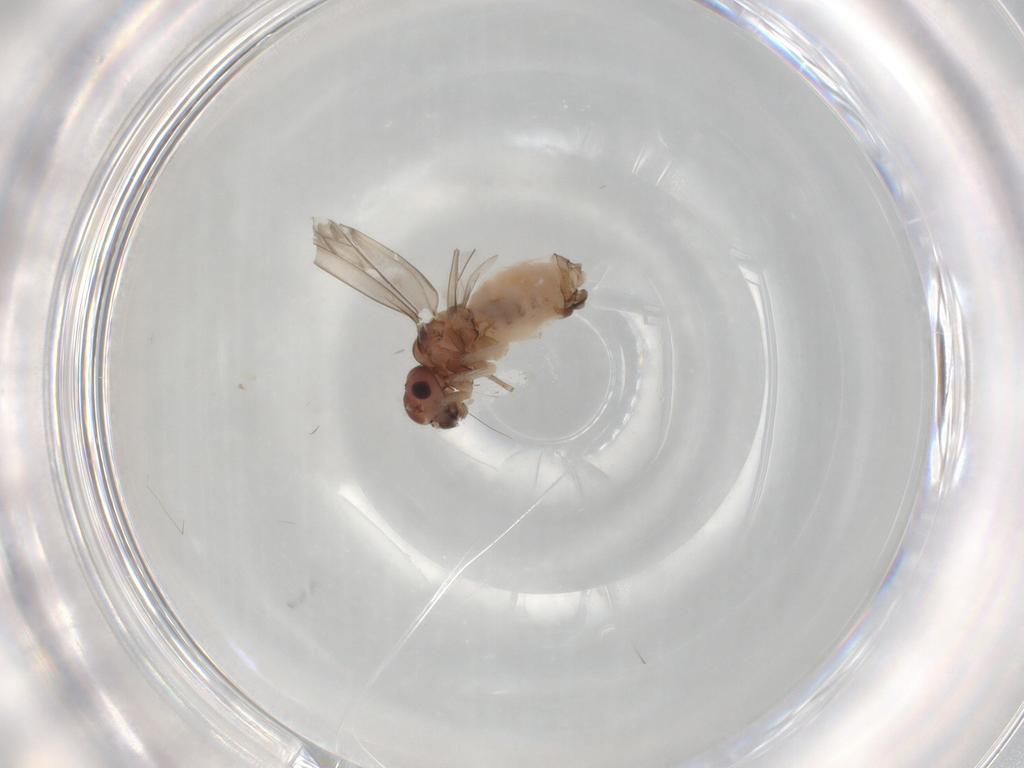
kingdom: Animalia
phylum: Arthropoda
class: Insecta
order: Psocodea
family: Peripsocidae
